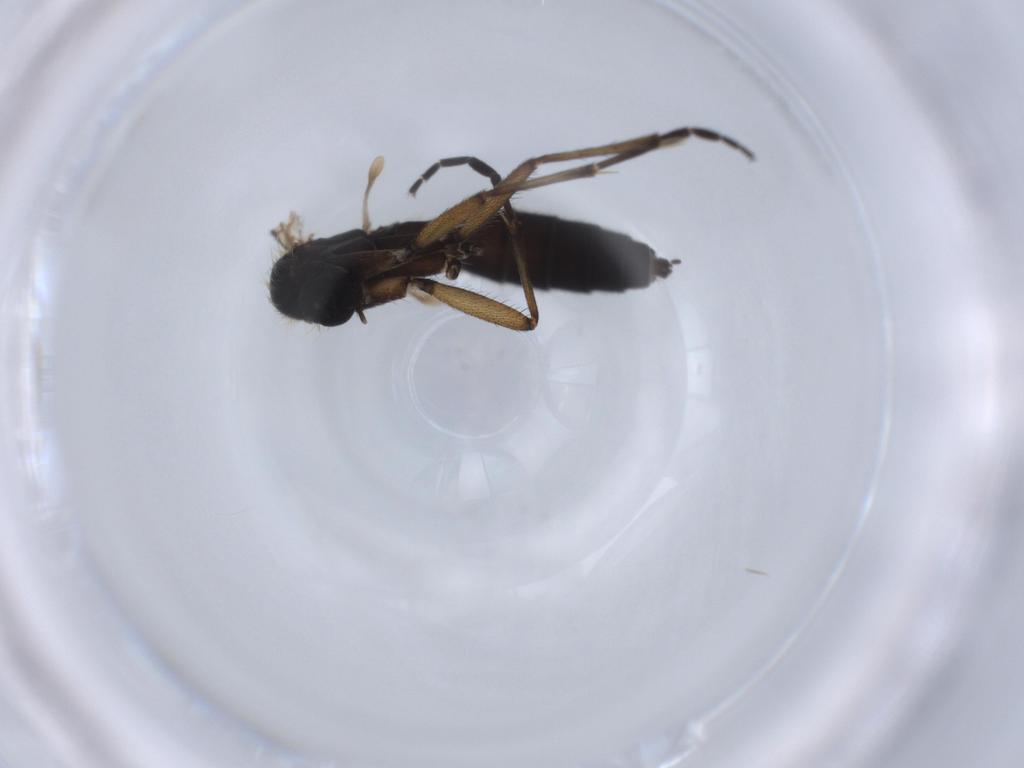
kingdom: Animalia
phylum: Arthropoda
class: Insecta
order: Diptera
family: Mycetophilidae
